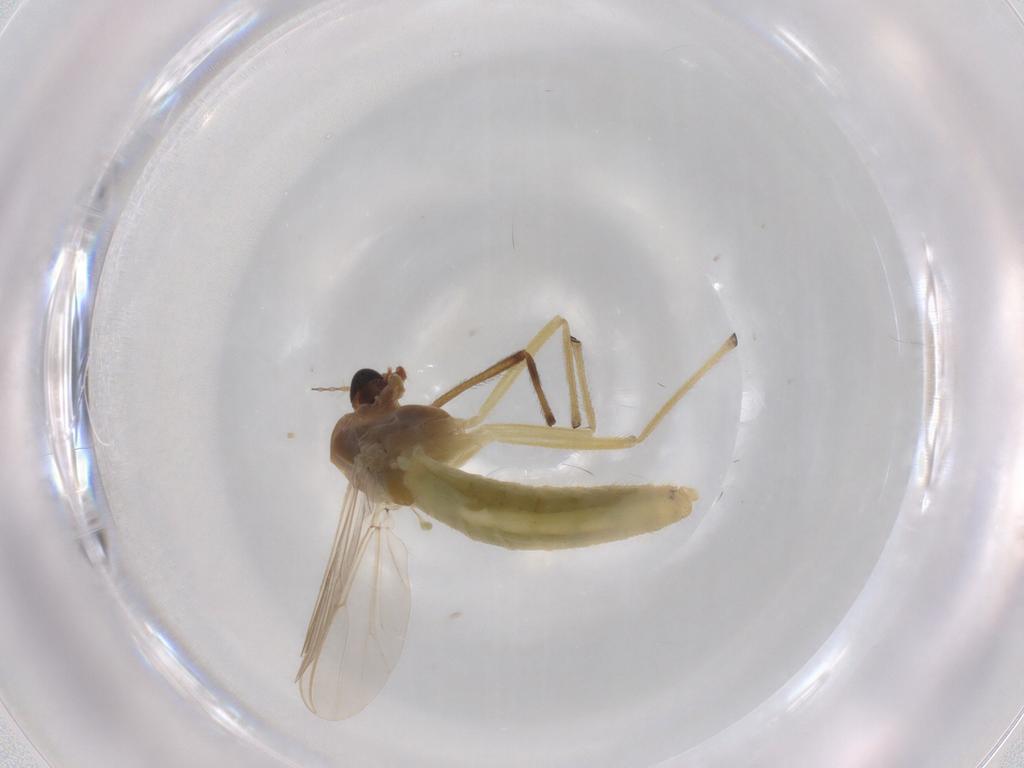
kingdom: Animalia
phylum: Arthropoda
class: Insecta
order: Diptera
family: Chironomidae
